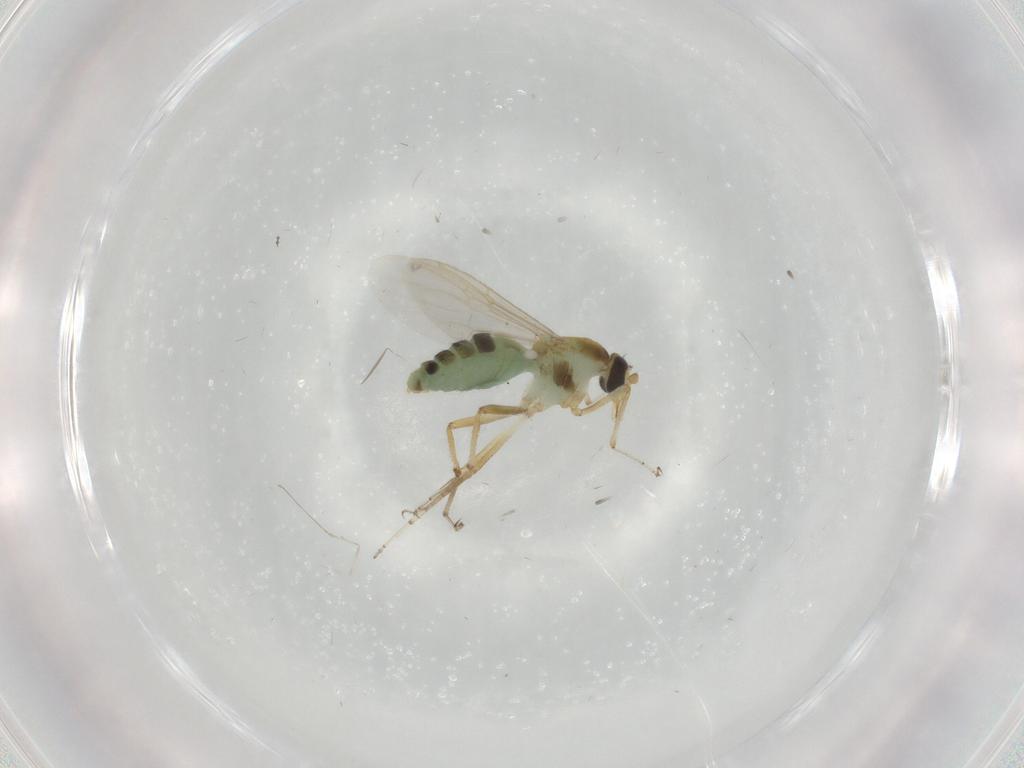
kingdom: Animalia
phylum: Arthropoda
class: Insecta
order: Diptera
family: Ceratopogonidae
